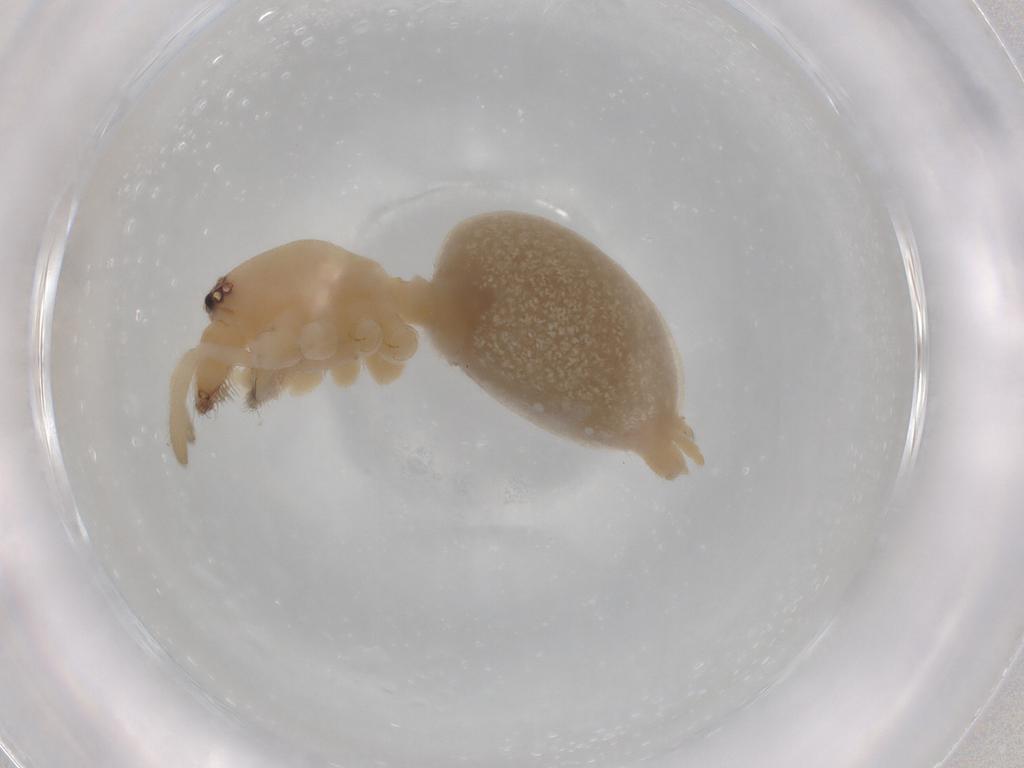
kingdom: Animalia
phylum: Arthropoda
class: Arachnida
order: Araneae
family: Cheiracanthiidae
